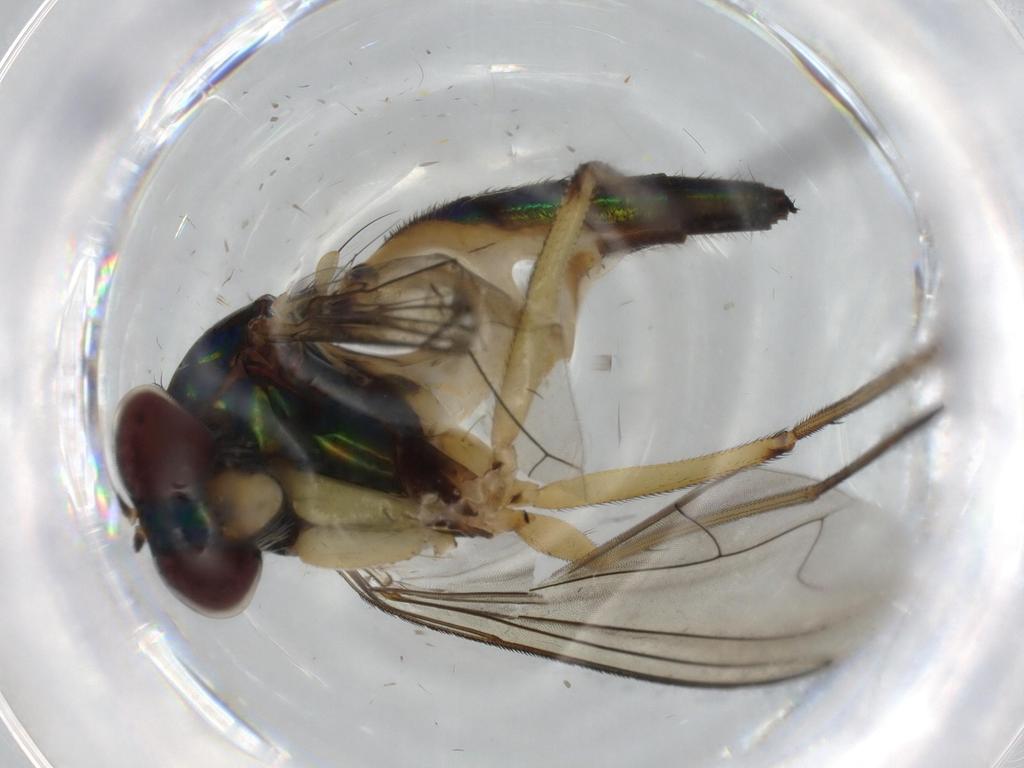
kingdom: Animalia
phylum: Arthropoda
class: Insecta
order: Diptera
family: Dolichopodidae
